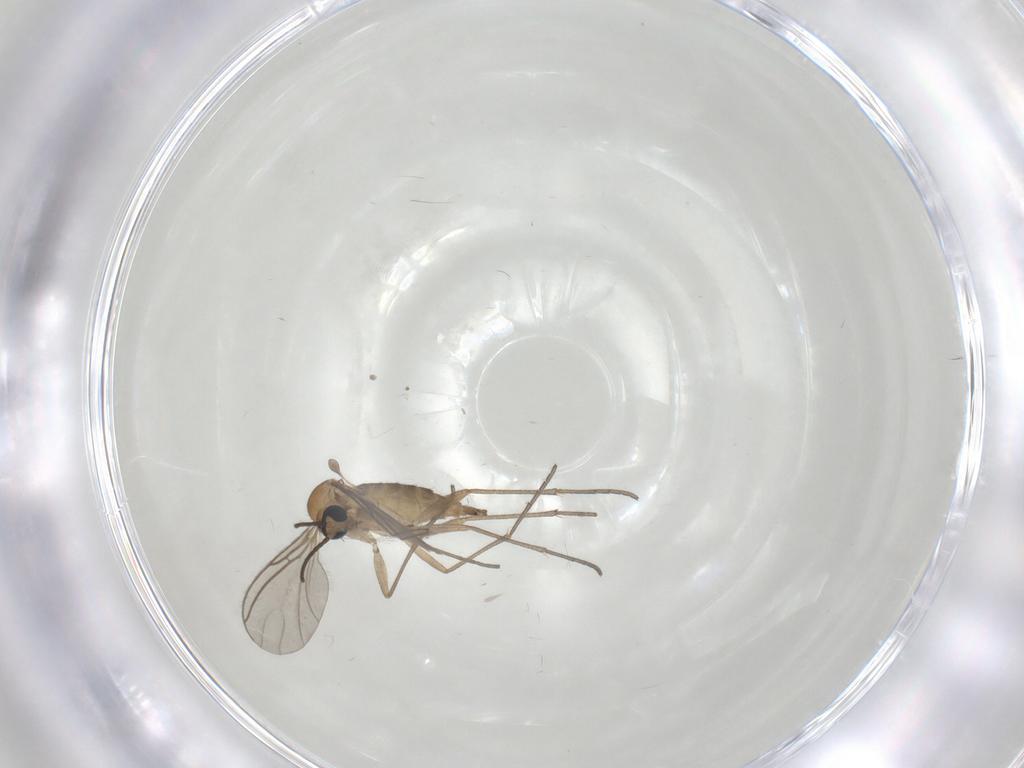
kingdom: Animalia
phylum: Arthropoda
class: Insecta
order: Diptera
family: Sciaridae
